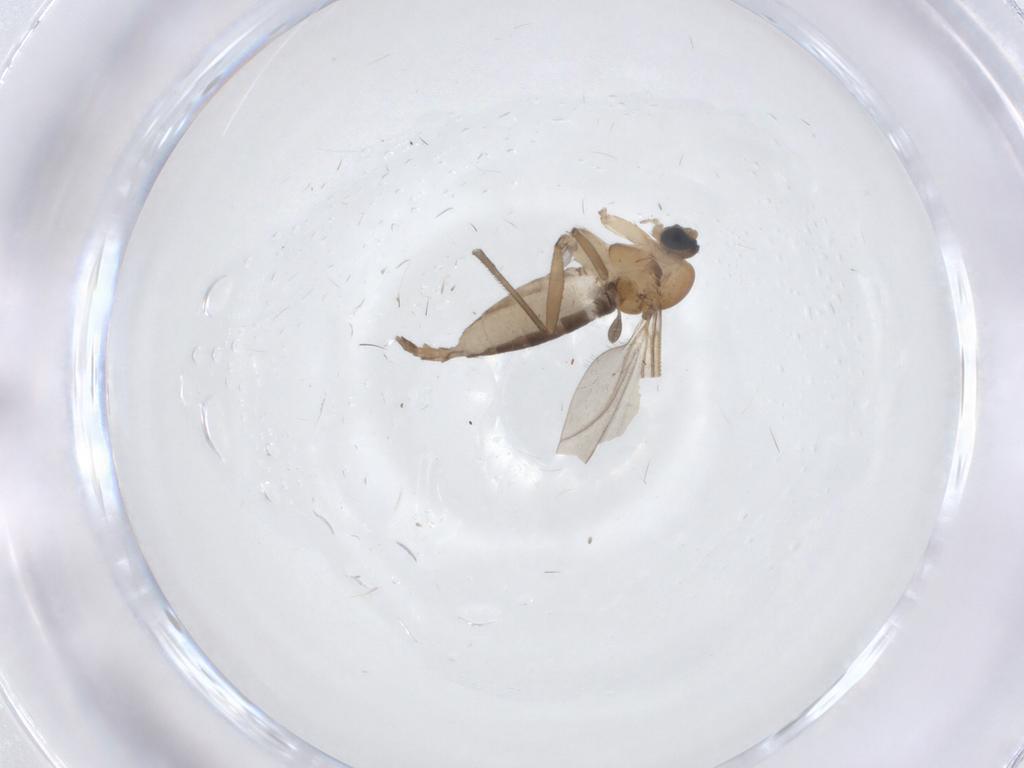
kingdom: Animalia
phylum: Arthropoda
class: Insecta
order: Diptera
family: Sciaridae
